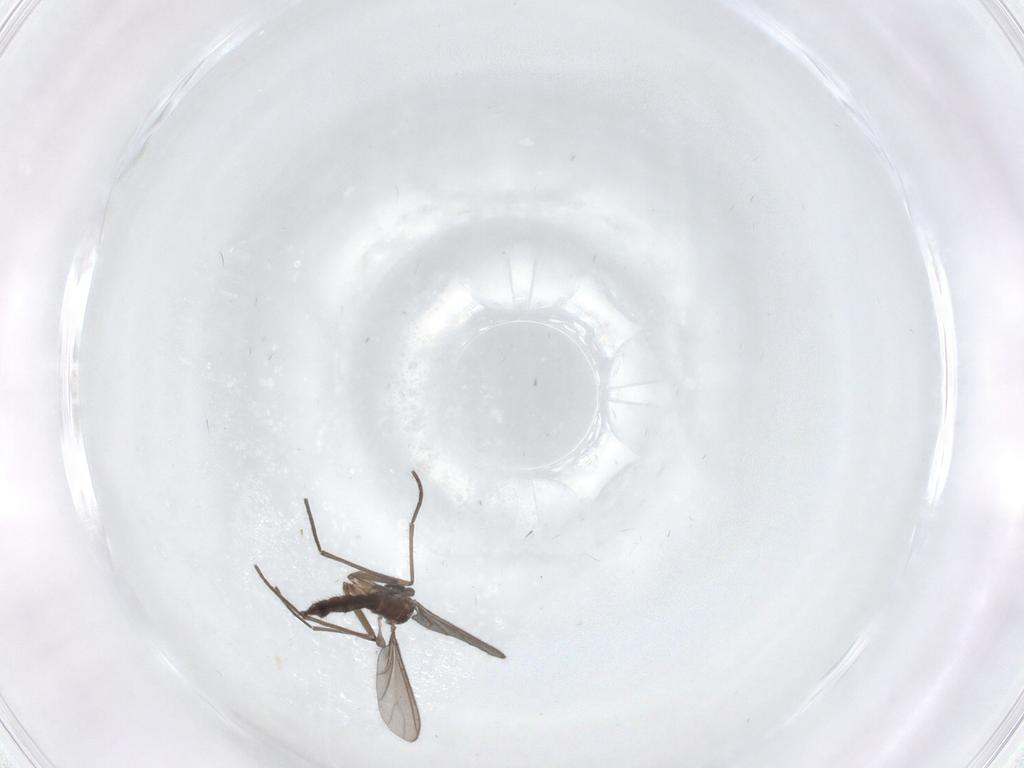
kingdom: Animalia
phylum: Arthropoda
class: Insecta
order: Diptera
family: Sciaridae
